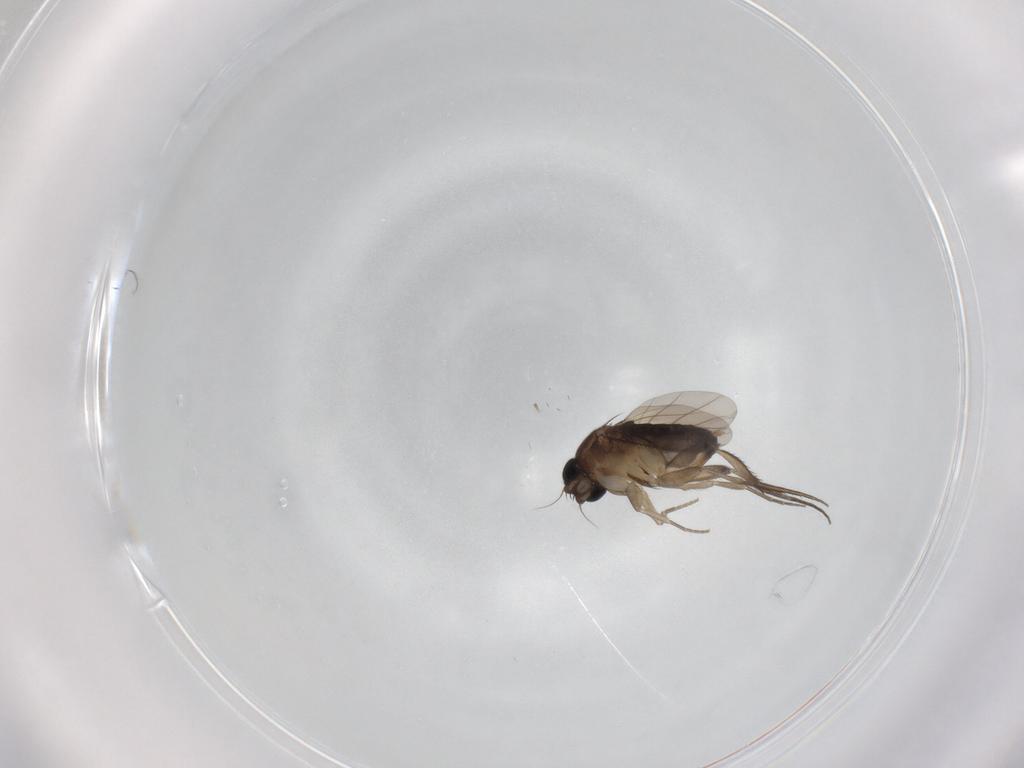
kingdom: Animalia
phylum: Arthropoda
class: Insecta
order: Diptera
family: Phoridae
